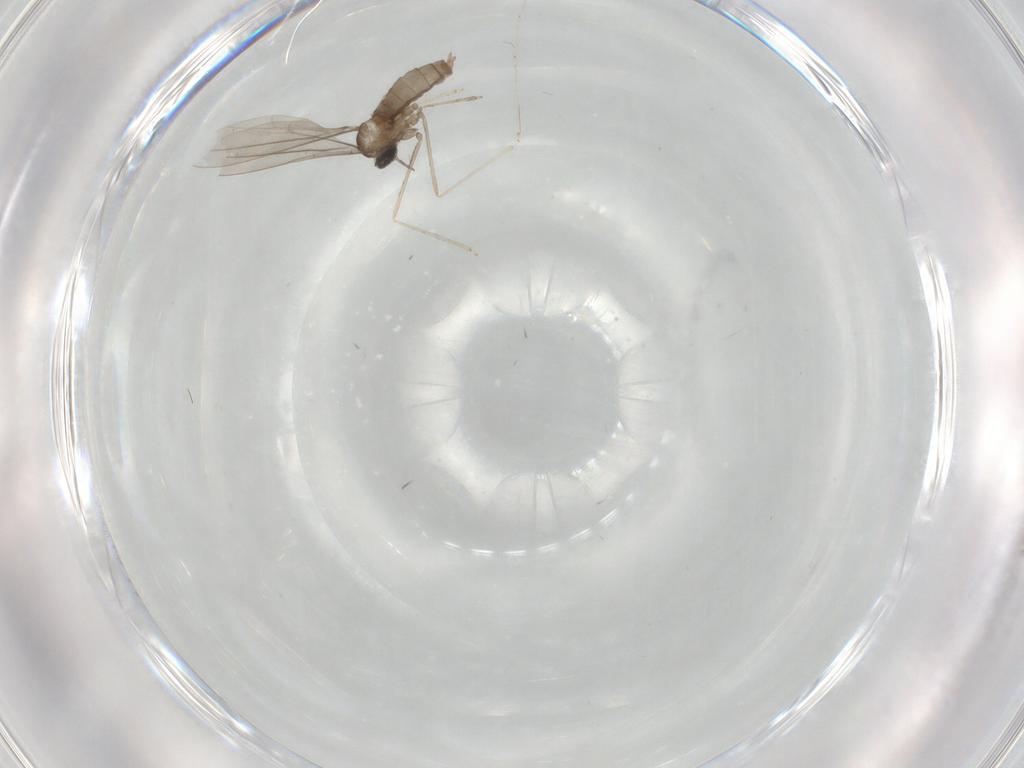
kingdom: Animalia
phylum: Arthropoda
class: Insecta
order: Diptera
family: Cecidomyiidae
